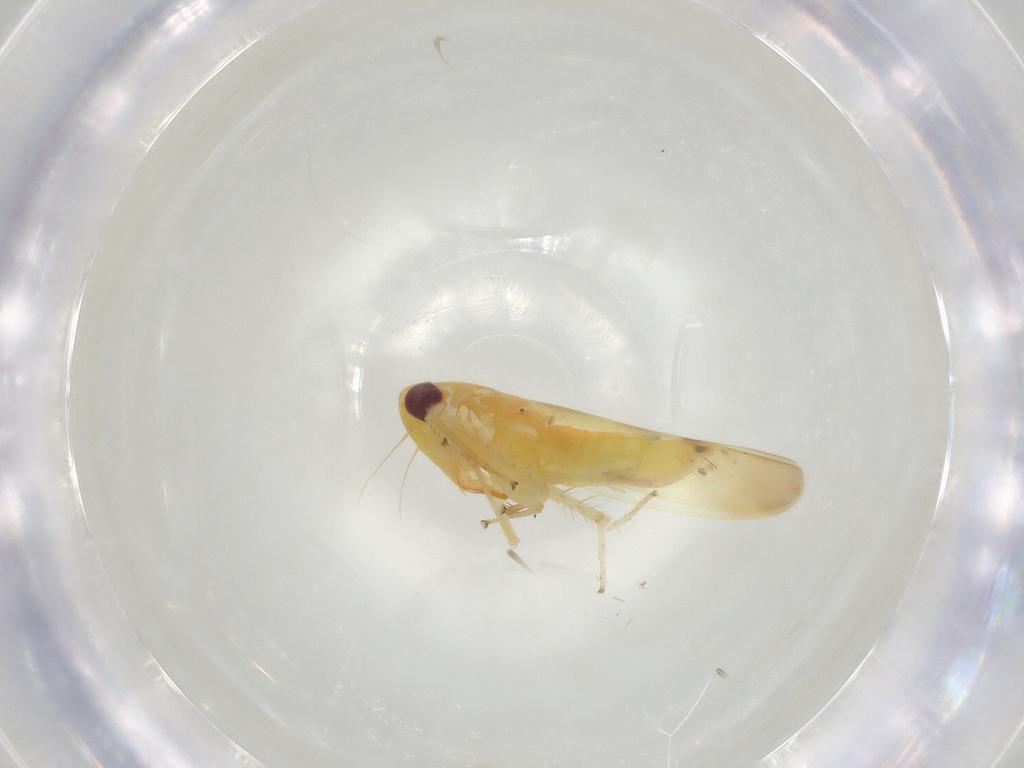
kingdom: Animalia
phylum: Arthropoda
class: Insecta
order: Hemiptera
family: Cicadellidae
